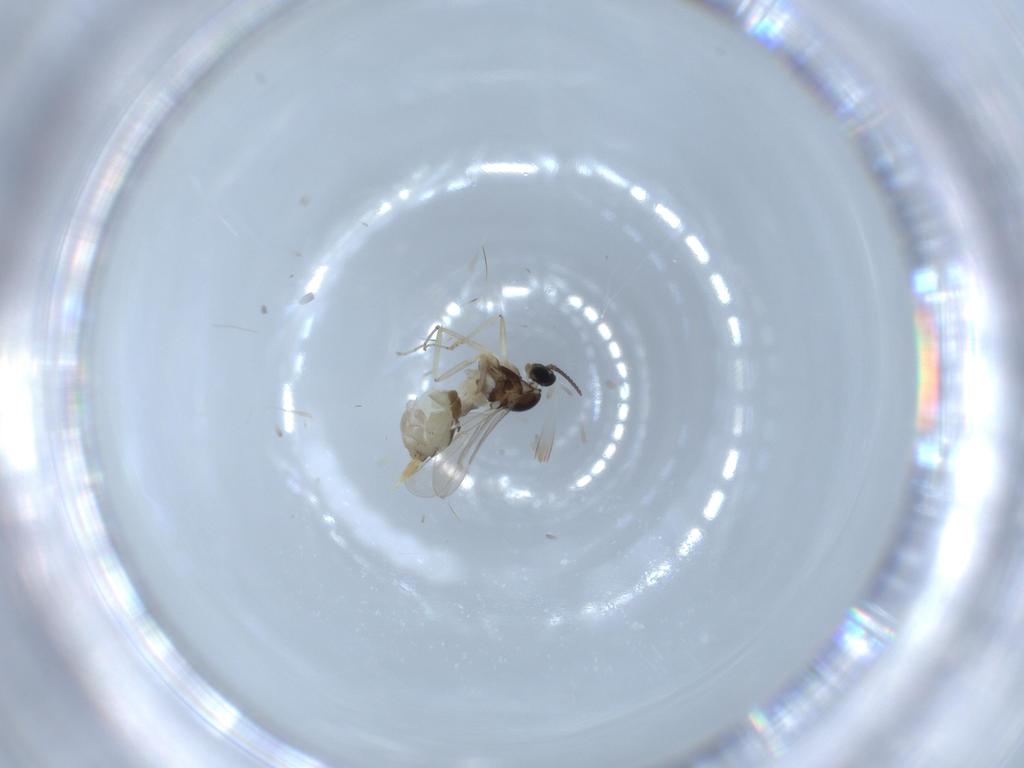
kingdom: Animalia
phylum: Arthropoda
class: Insecta
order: Diptera
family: Cecidomyiidae
